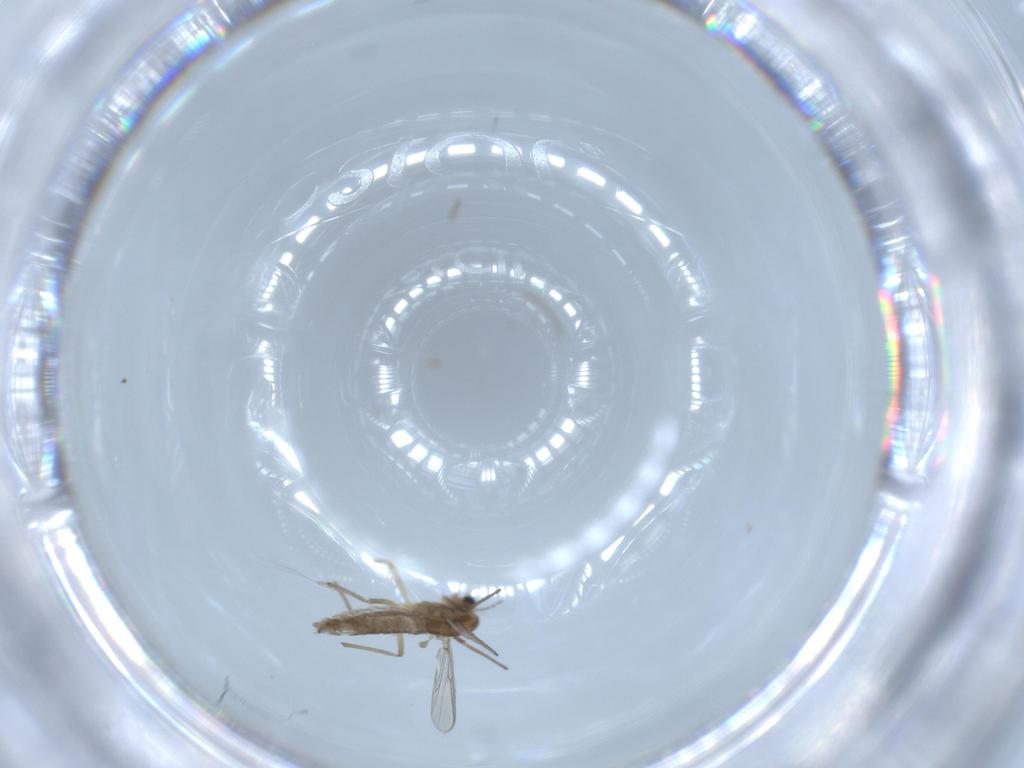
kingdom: Animalia
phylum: Arthropoda
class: Insecta
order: Diptera
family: Chironomidae
